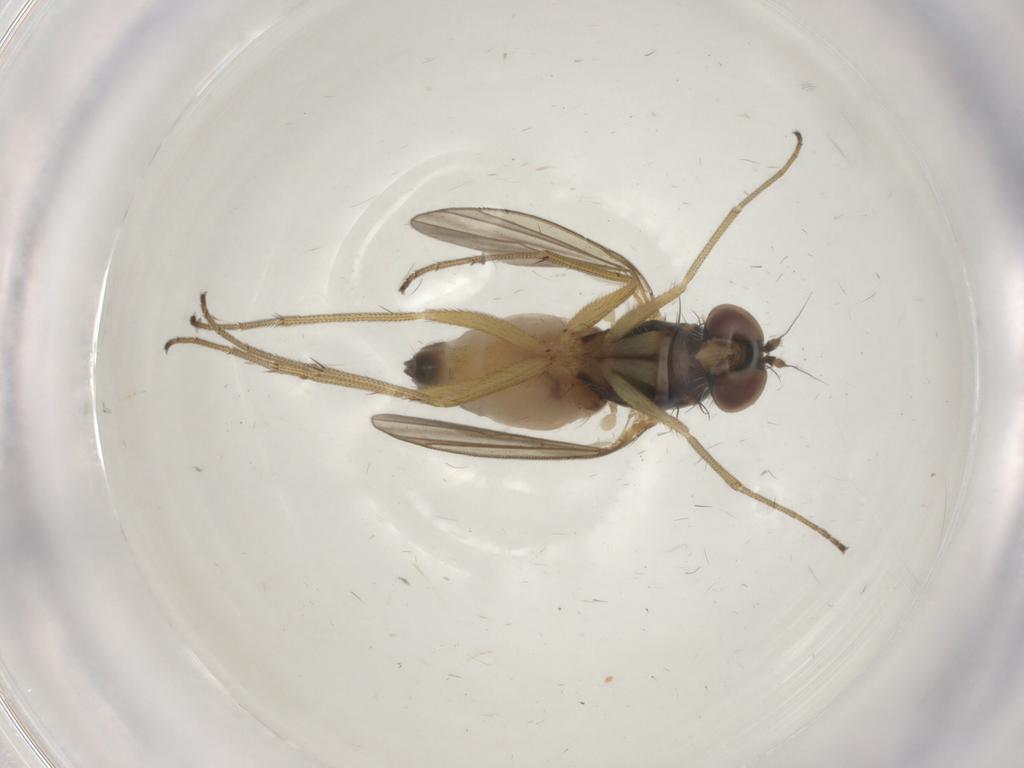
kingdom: Animalia
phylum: Arthropoda
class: Insecta
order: Diptera
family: Dolichopodidae
